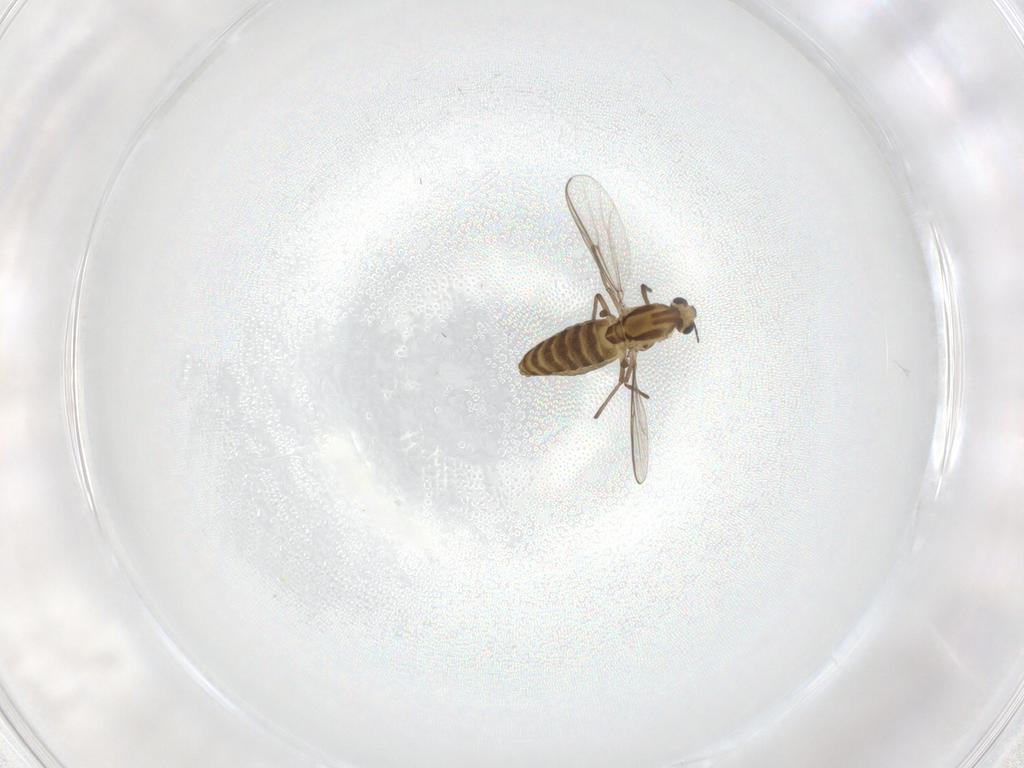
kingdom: Animalia
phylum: Arthropoda
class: Insecta
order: Diptera
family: Chironomidae
